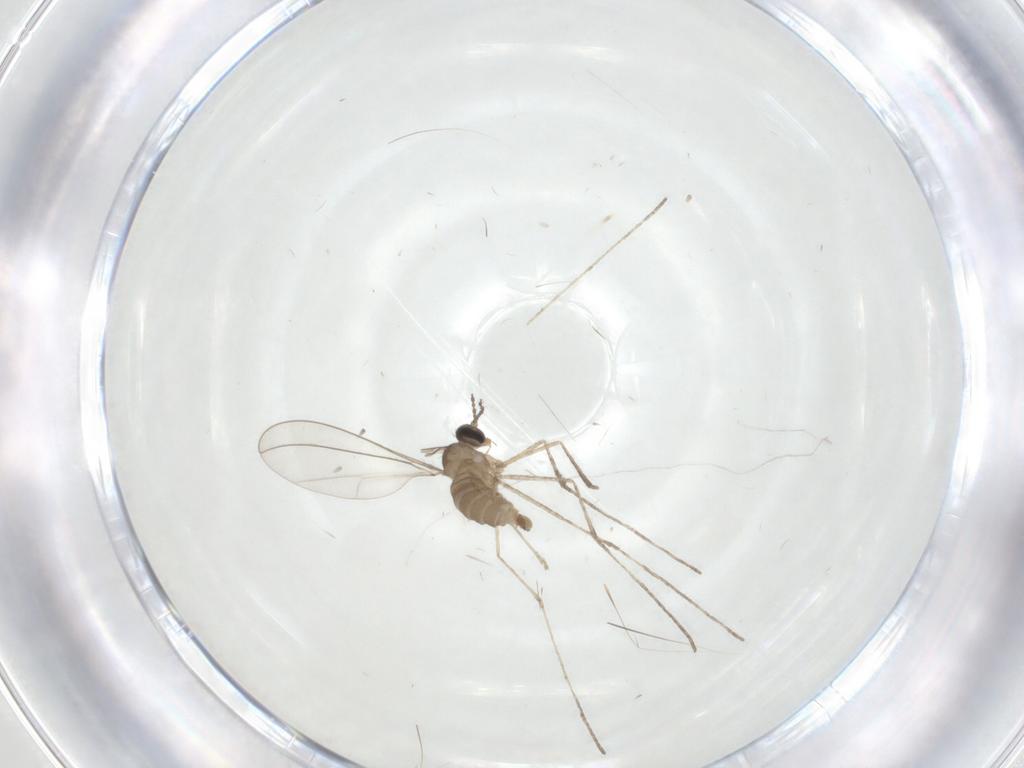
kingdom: Animalia
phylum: Arthropoda
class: Insecta
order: Diptera
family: Cecidomyiidae
